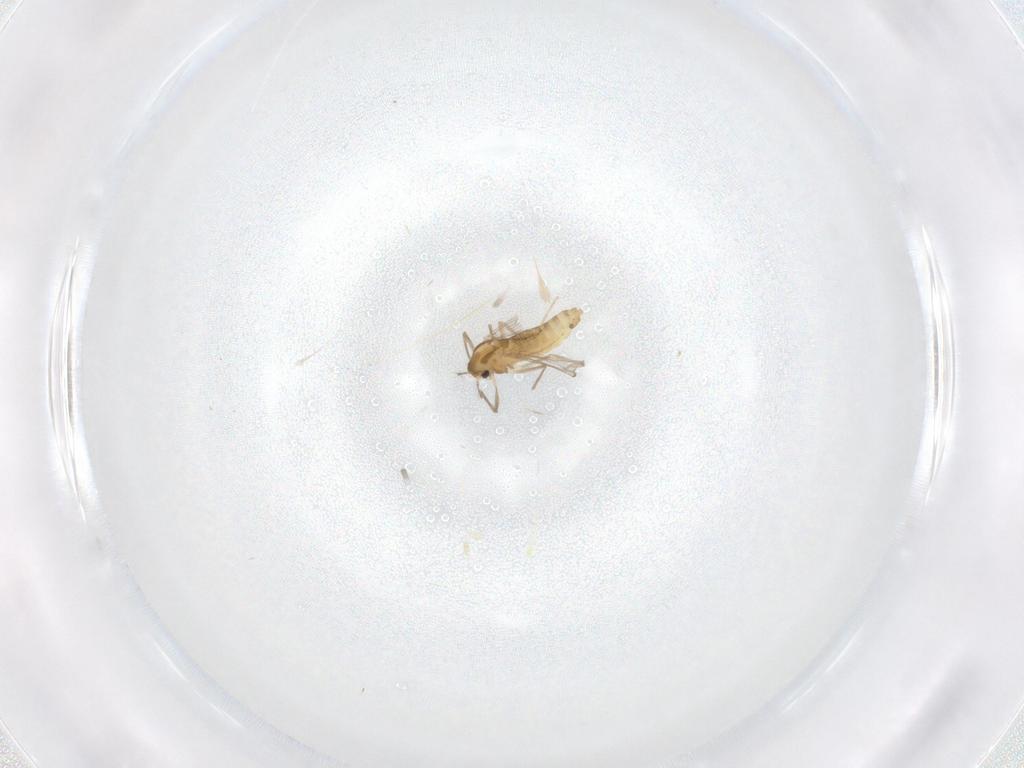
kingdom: Animalia
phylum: Arthropoda
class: Insecta
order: Diptera
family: Chironomidae
